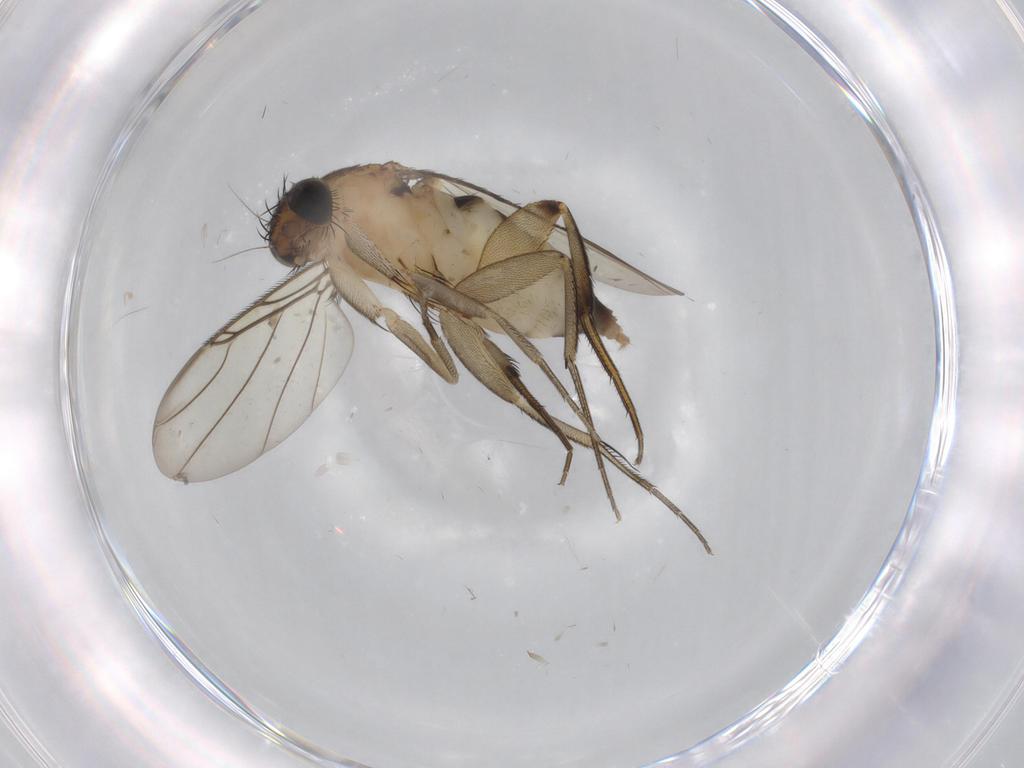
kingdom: Animalia
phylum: Arthropoda
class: Insecta
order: Diptera
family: Phoridae
